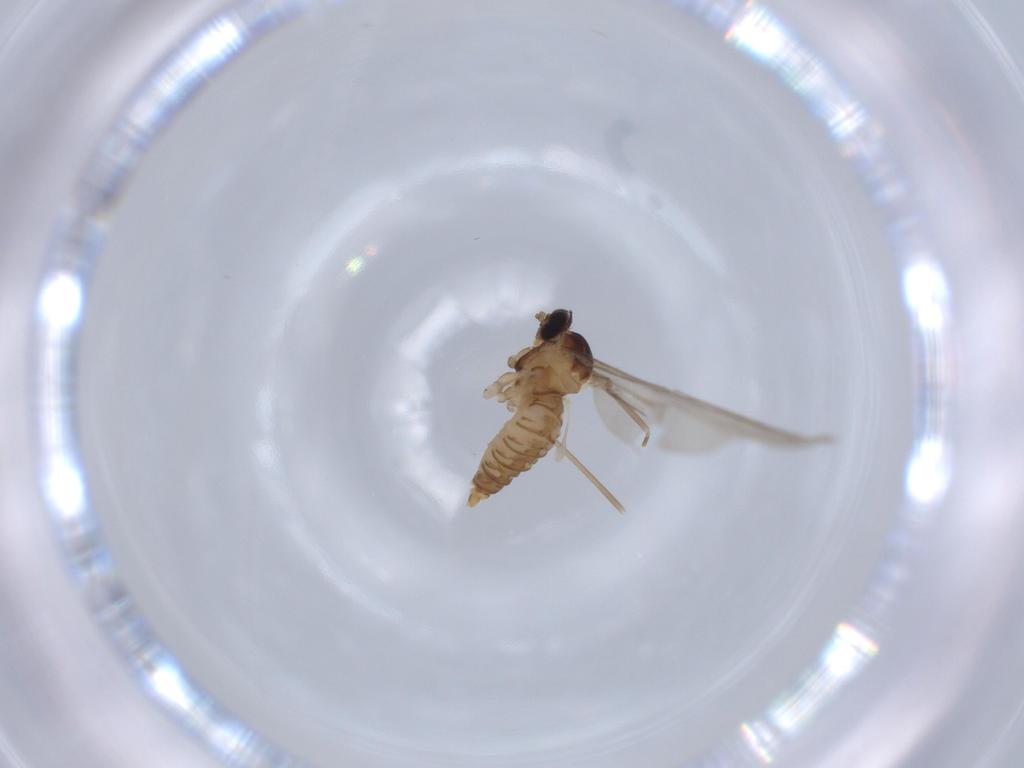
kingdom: Animalia
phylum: Arthropoda
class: Insecta
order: Diptera
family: Cecidomyiidae
